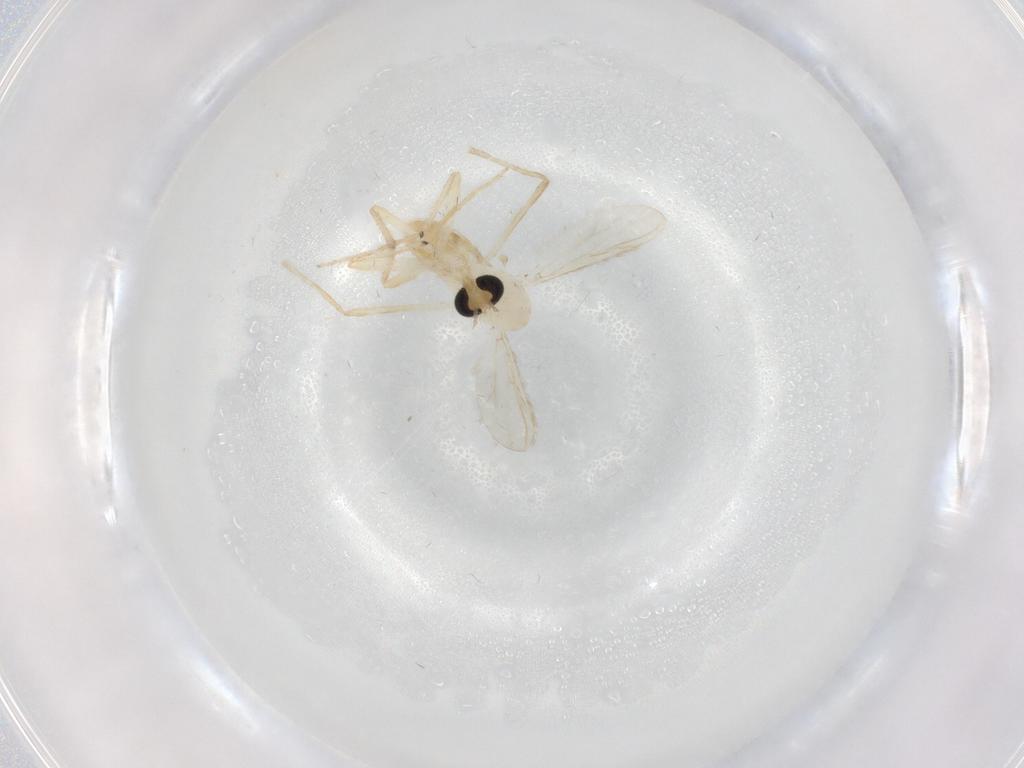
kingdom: Animalia
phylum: Arthropoda
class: Insecta
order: Diptera
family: Chironomidae
